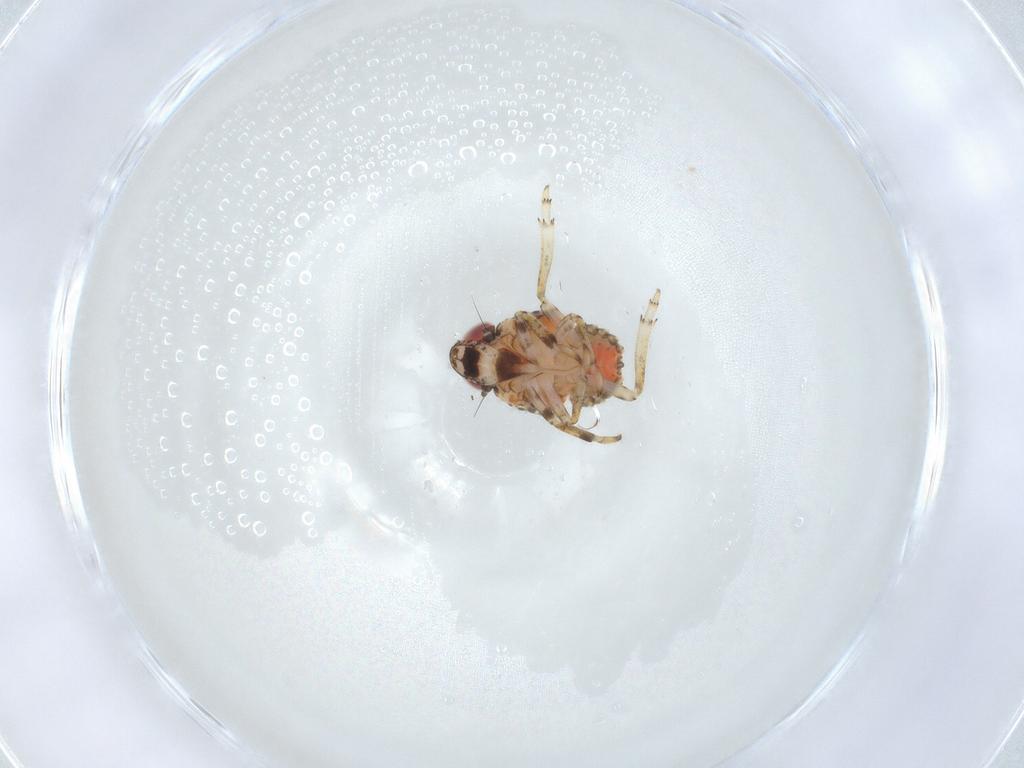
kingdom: Animalia
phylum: Arthropoda
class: Insecta
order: Hemiptera
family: Issidae
